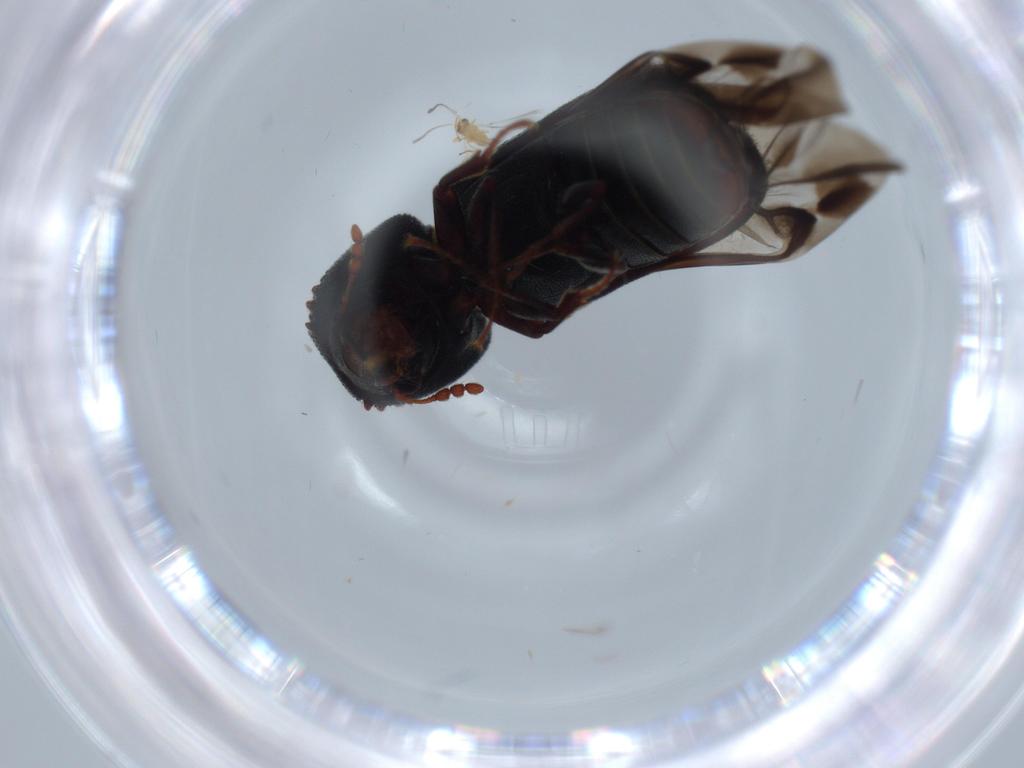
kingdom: Animalia
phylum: Arthropoda
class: Insecta
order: Coleoptera
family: Bostrichidae
